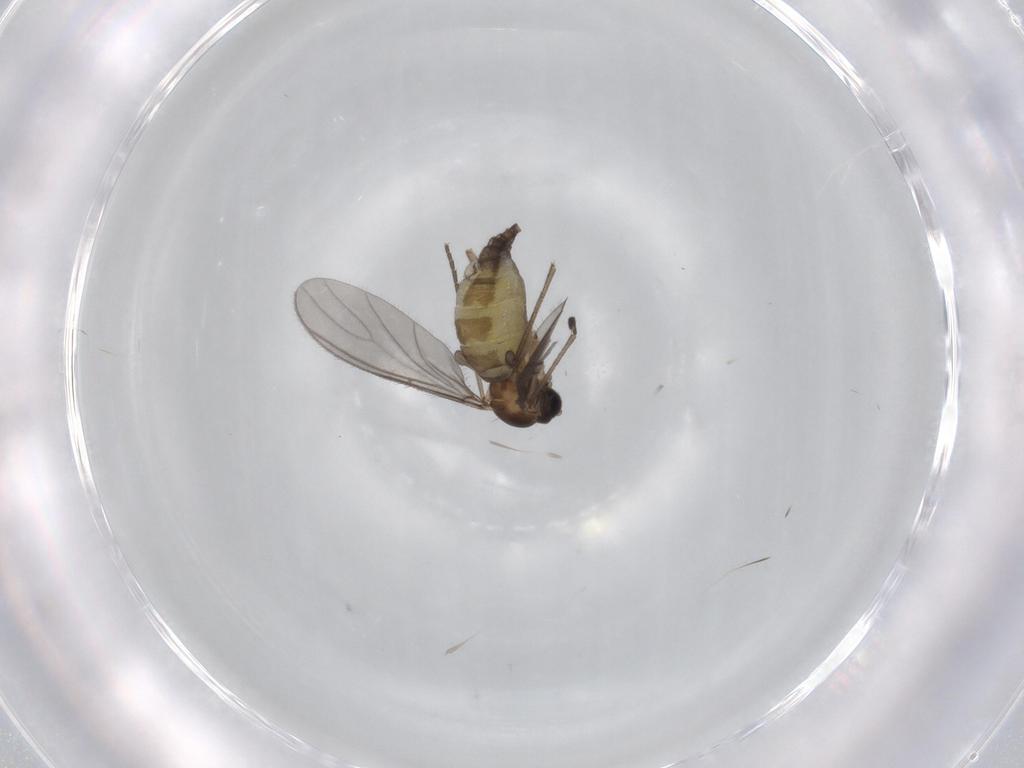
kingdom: Animalia
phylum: Arthropoda
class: Insecta
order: Diptera
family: Sciaridae
